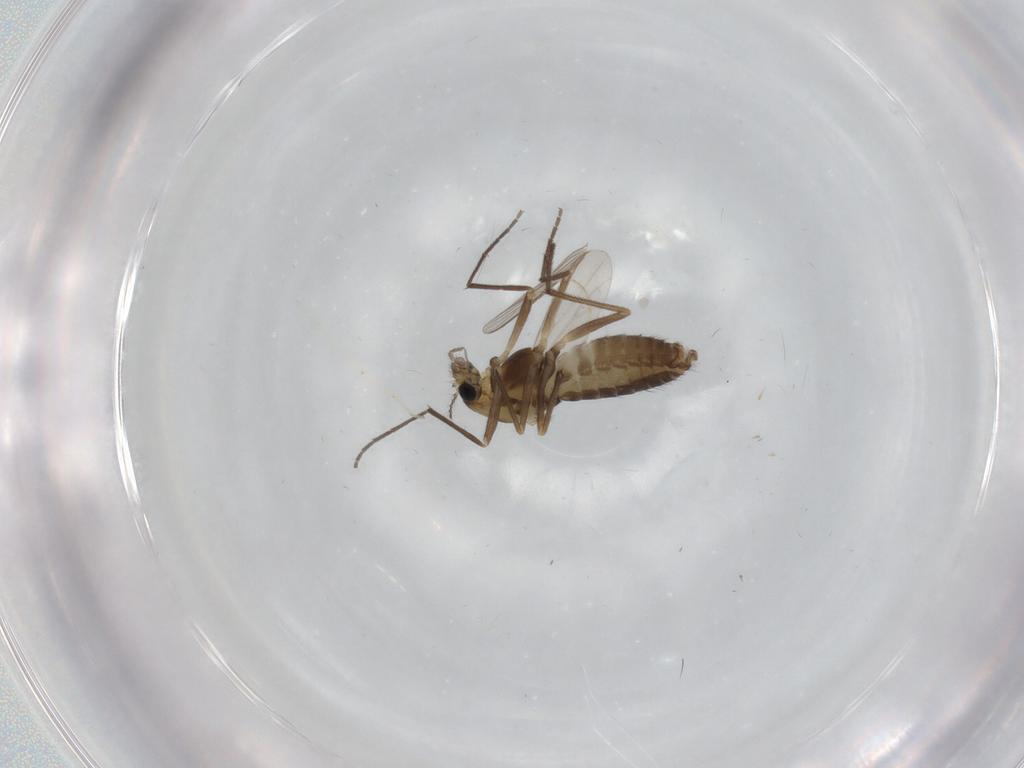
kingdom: Animalia
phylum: Arthropoda
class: Insecta
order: Diptera
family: Chironomidae
